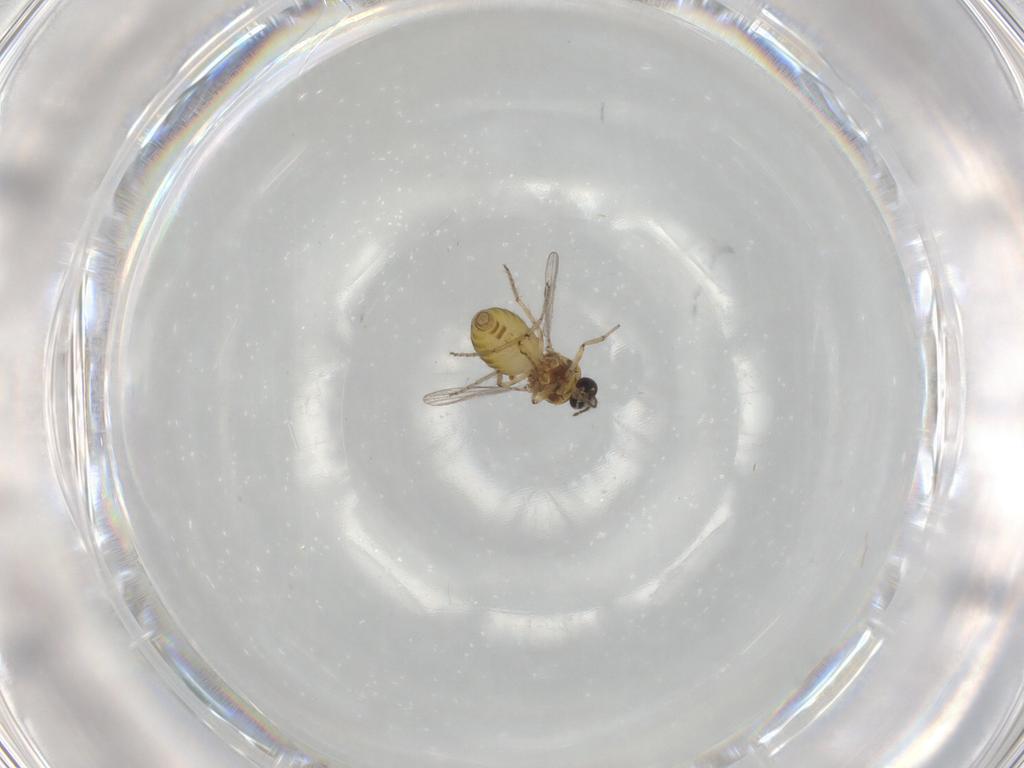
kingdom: Animalia
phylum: Arthropoda
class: Insecta
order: Diptera
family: Ceratopogonidae
